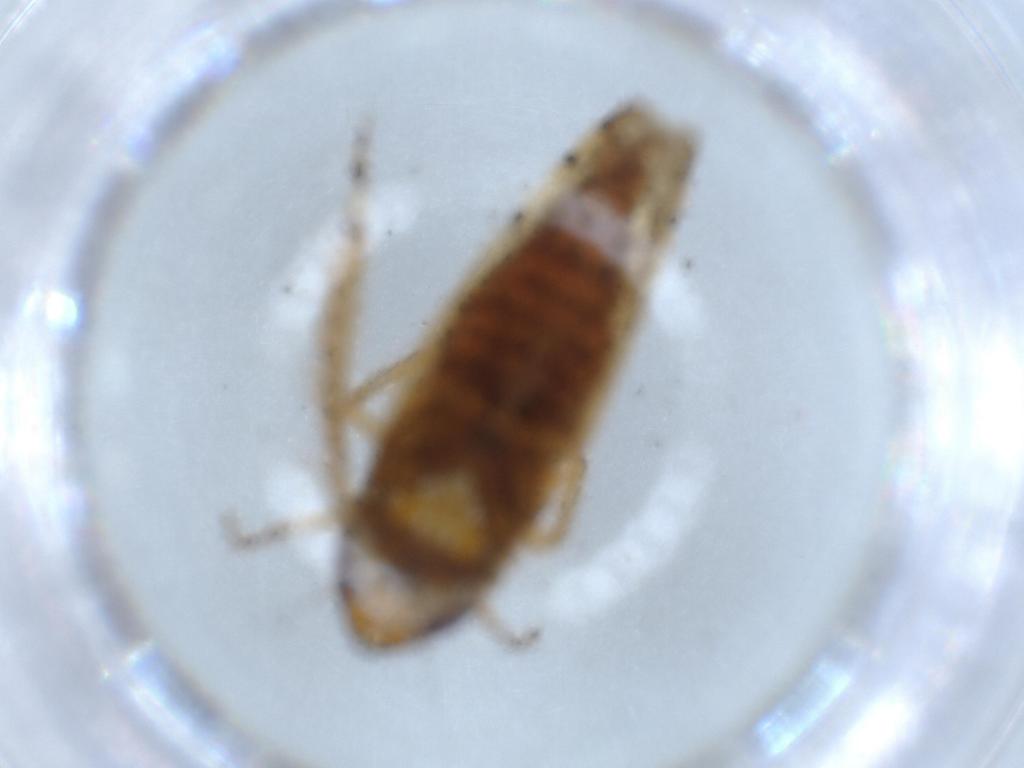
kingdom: Animalia
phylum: Arthropoda
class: Insecta
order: Hemiptera
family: Cicadellidae
